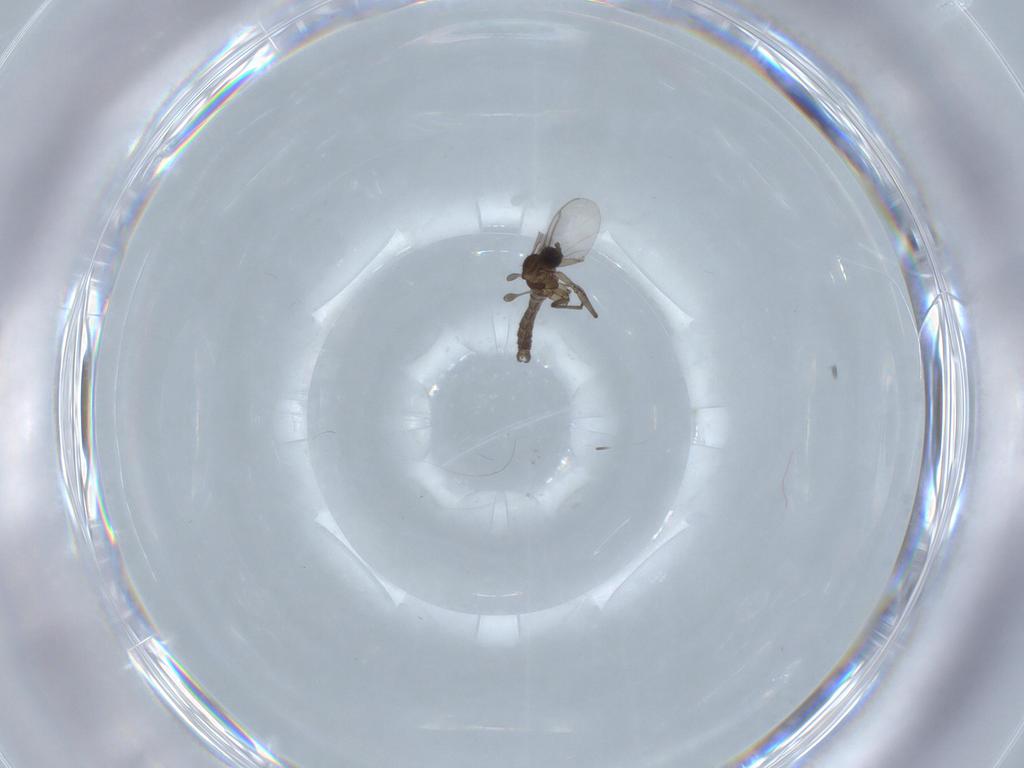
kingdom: Animalia
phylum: Arthropoda
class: Insecta
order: Diptera
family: Sciaridae
